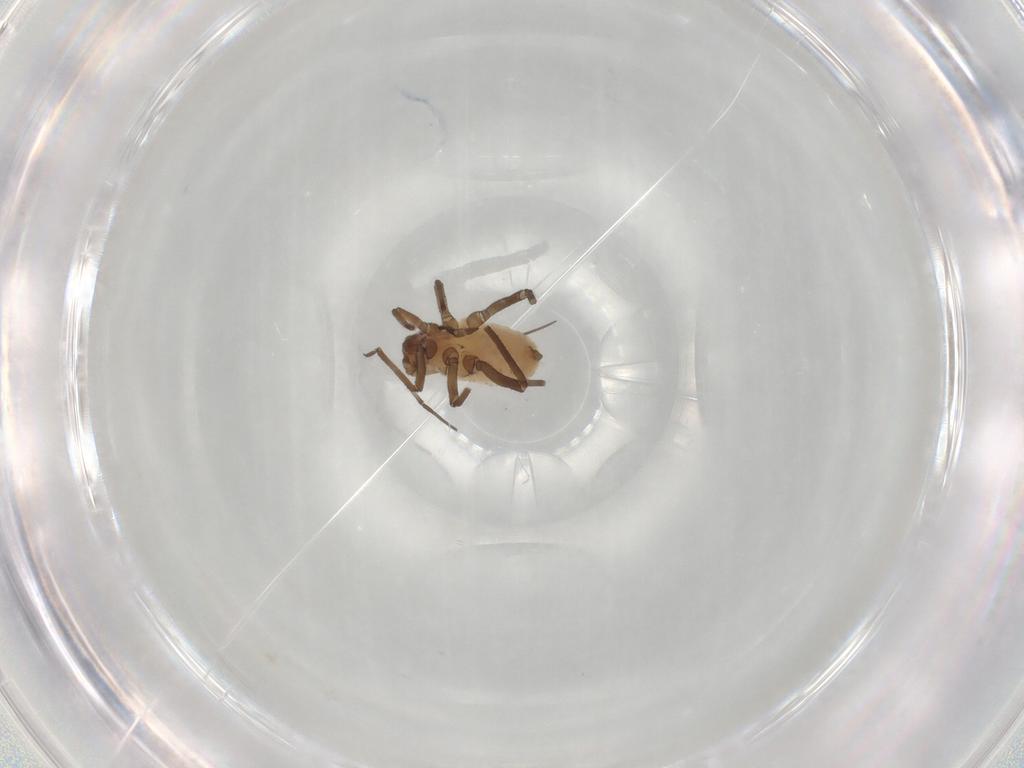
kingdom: Animalia
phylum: Arthropoda
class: Insecta
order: Hemiptera
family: Aphididae
